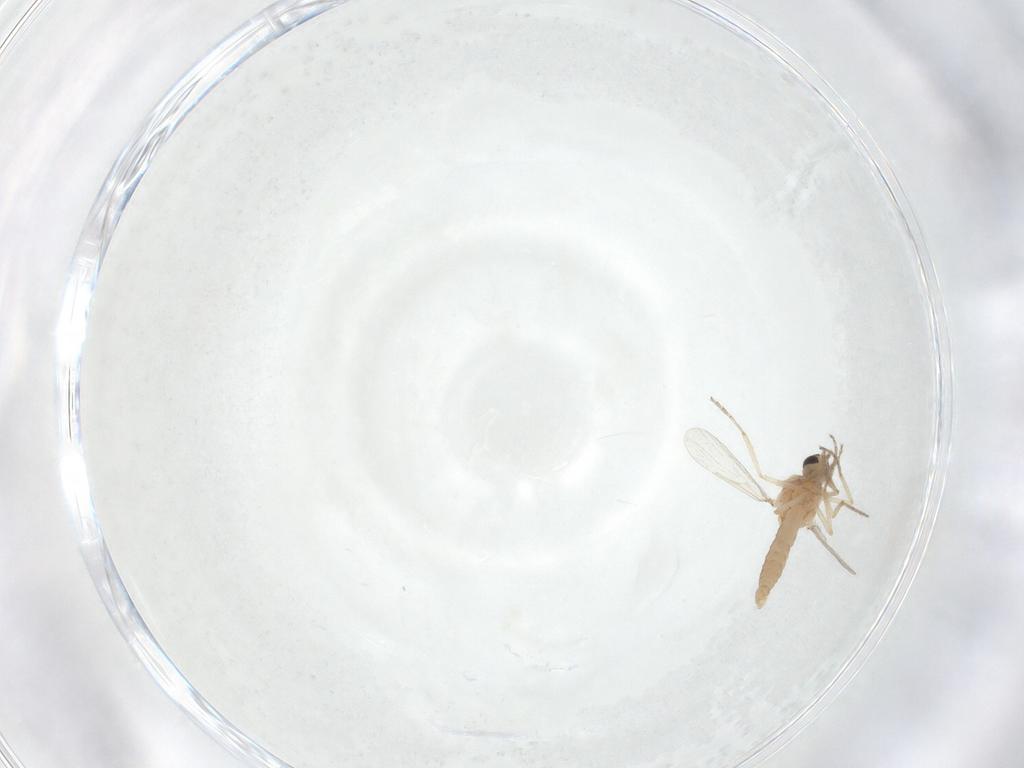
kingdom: Animalia
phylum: Arthropoda
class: Insecta
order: Diptera
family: Ceratopogonidae
